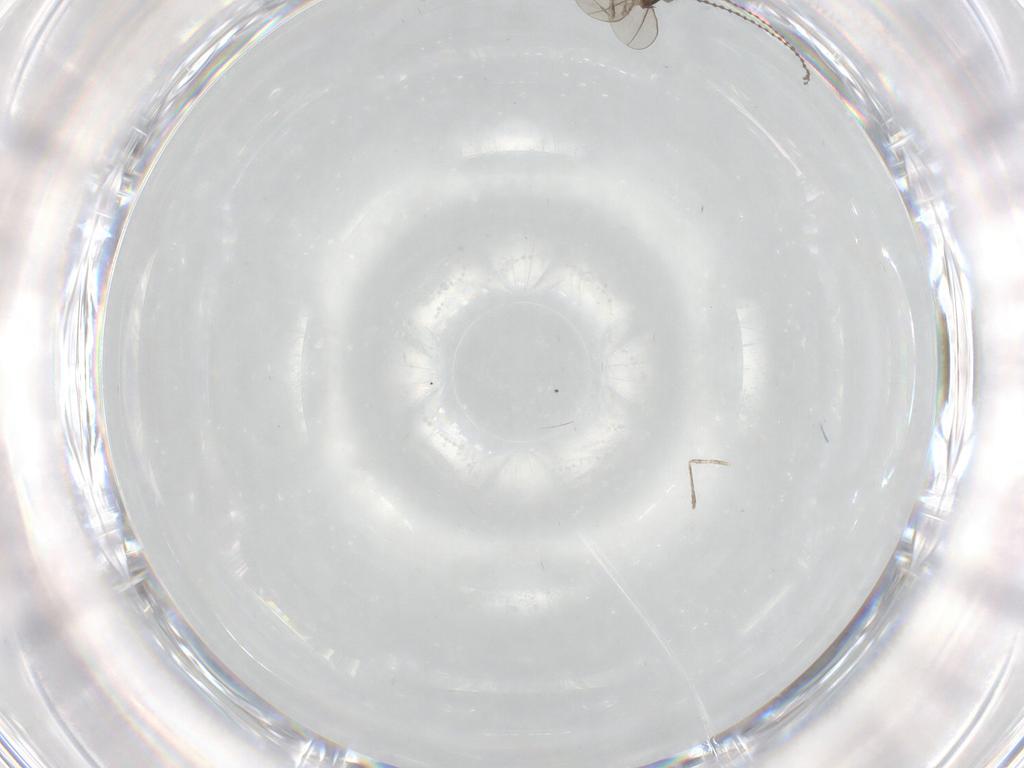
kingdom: Animalia
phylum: Arthropoda
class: Insecta
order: Diptera
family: Cecidomyiidae
